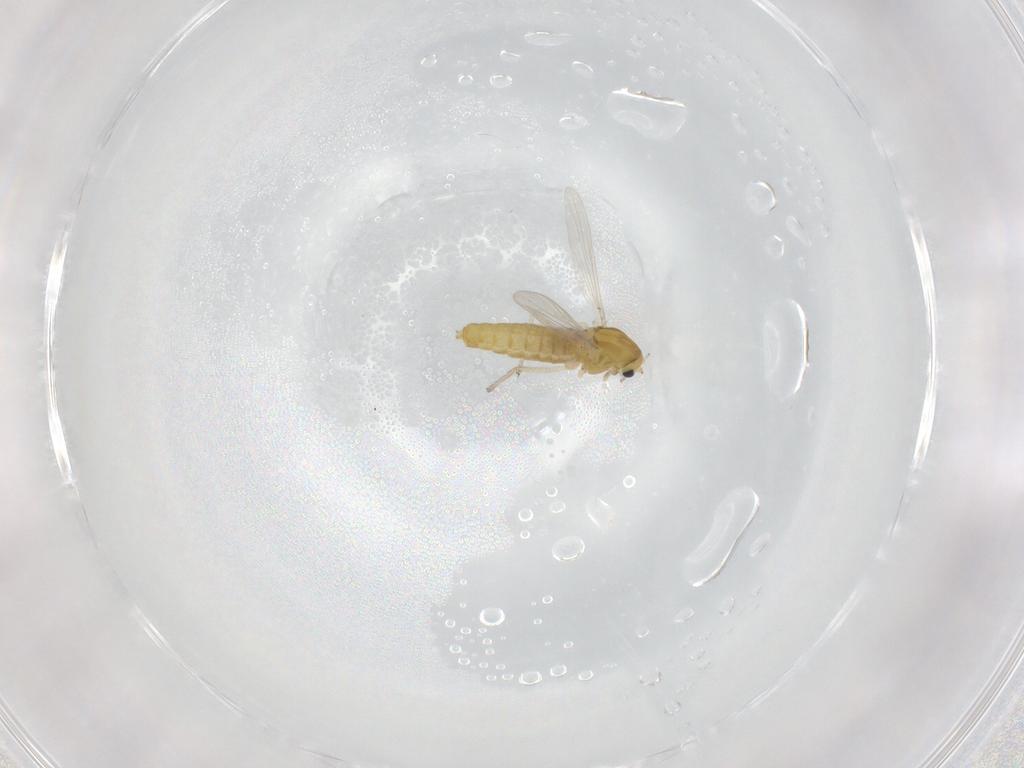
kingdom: Animalia
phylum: Arthropoda
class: Insecta
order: Diptera
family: Chironomidae
